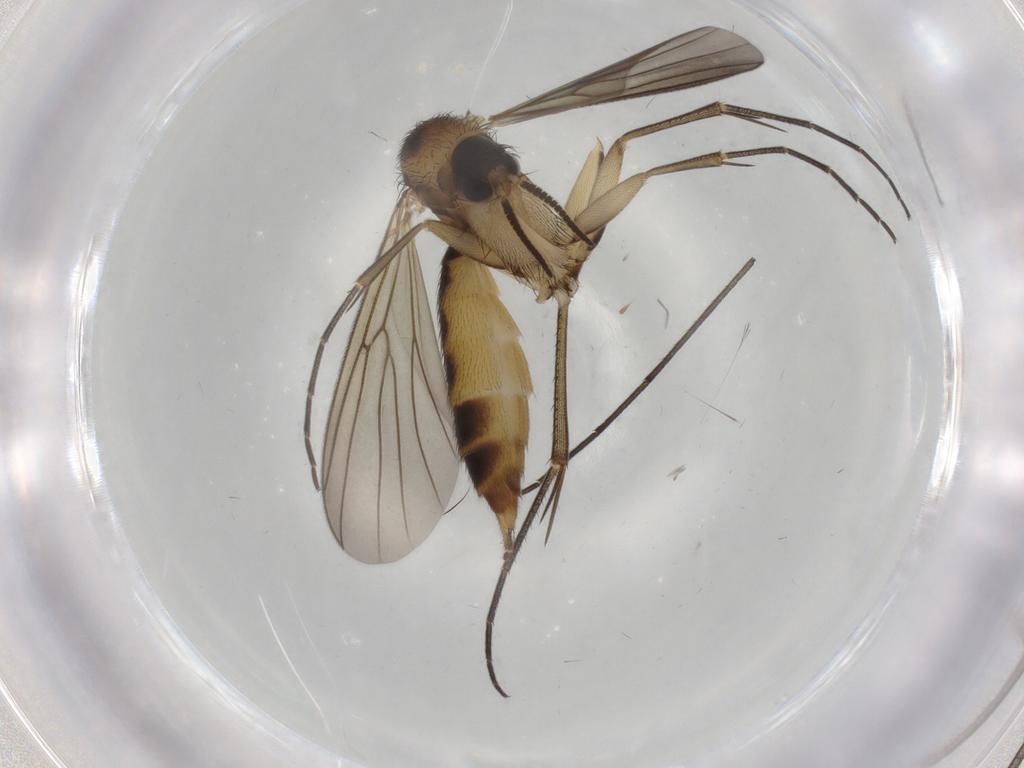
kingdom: Animalia
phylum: Arthropoda
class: Insecta
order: Diptera
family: Mycetophilidae
